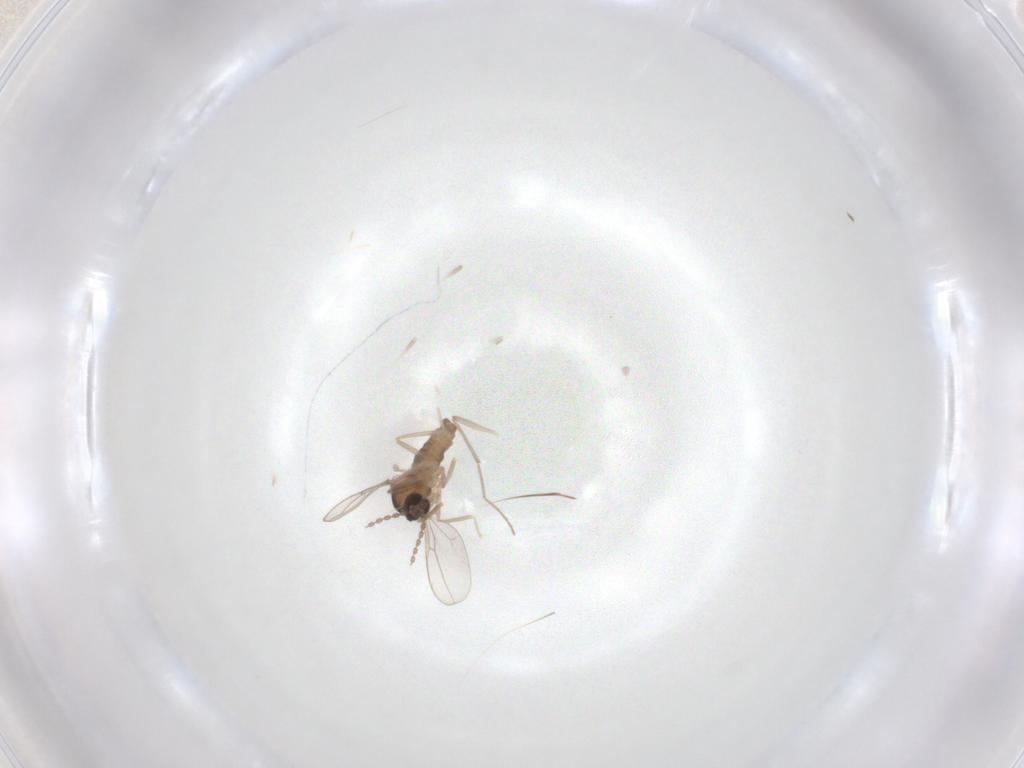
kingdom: Animalia
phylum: Arthropoda
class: Insecta
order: Diptera
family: Cecidomyiidae
